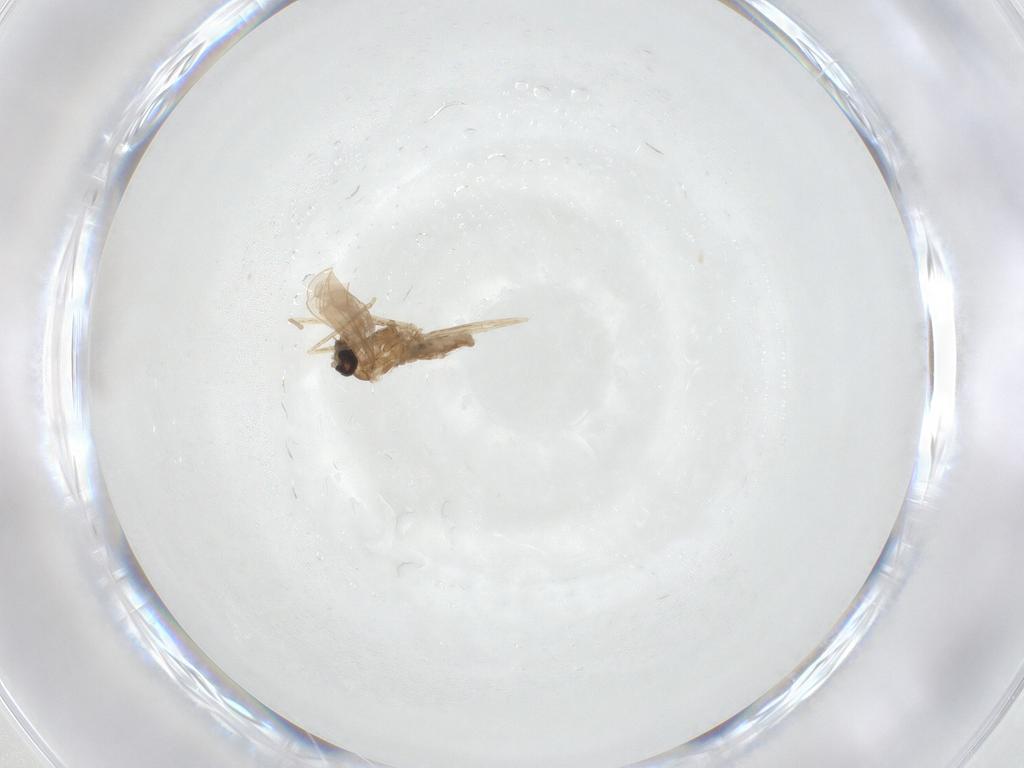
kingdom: Animalia
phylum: Arthropoda
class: Insecta
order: Diptera
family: Cecidomyiidae
